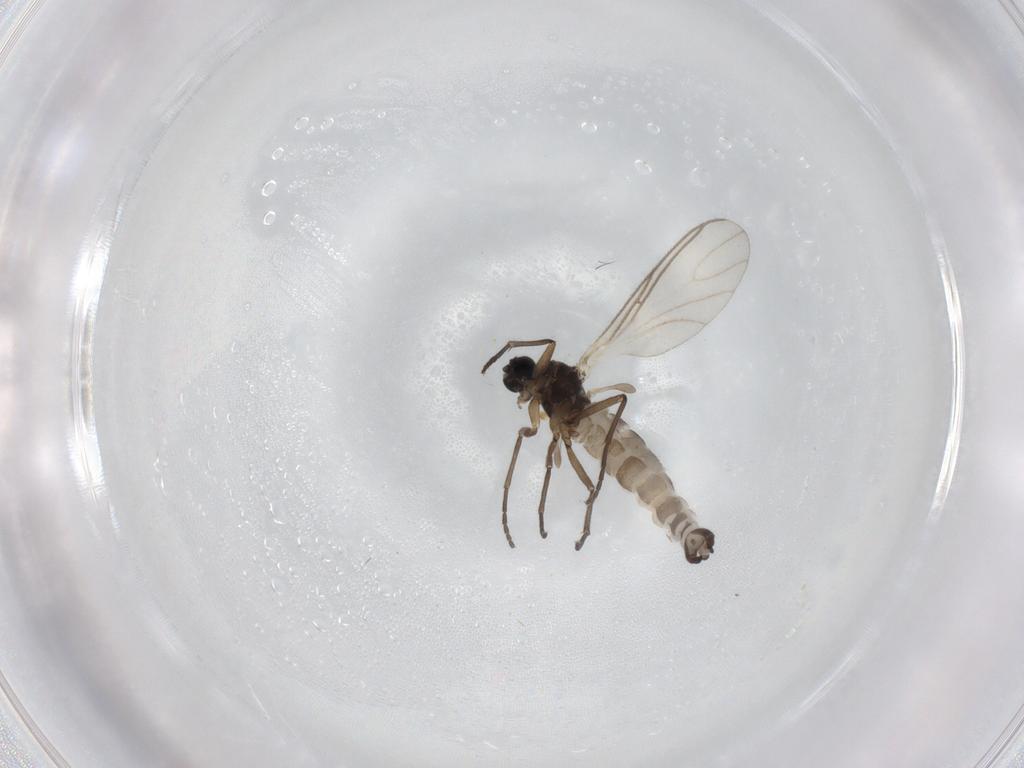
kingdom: Animalia
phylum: Arthropoda
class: Insecta
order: Diptera
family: Sciaridae
